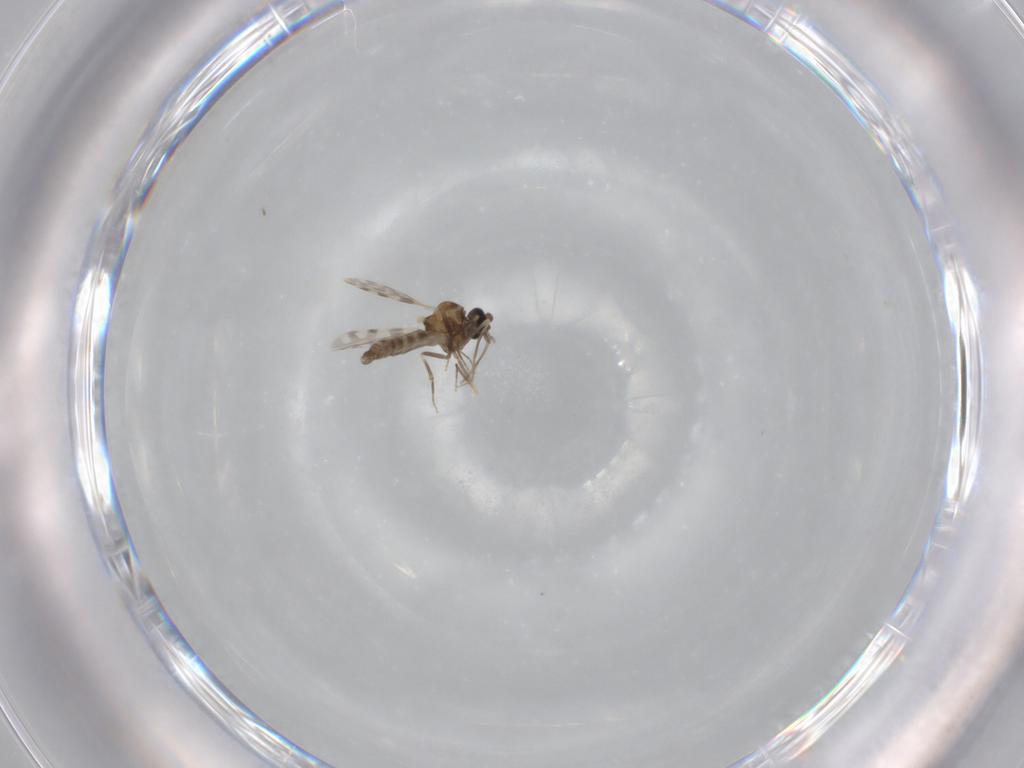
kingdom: Animalia
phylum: Arthropoda
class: Insecta
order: Diptera
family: Ceratopogonidae
